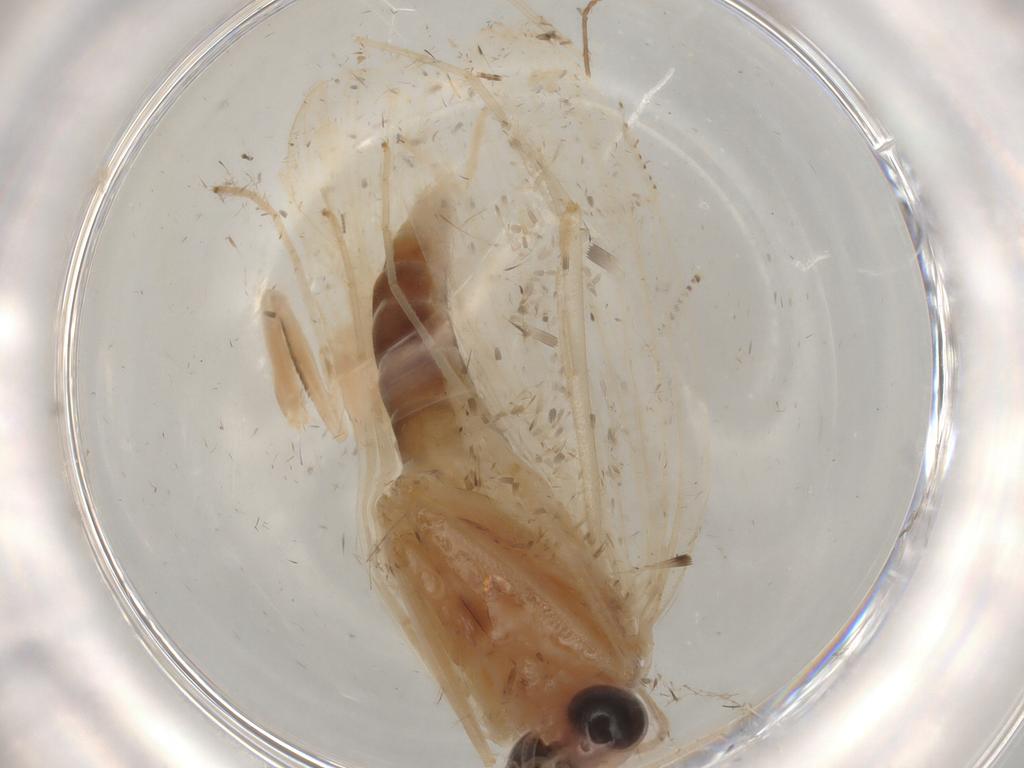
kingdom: Animalia
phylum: Arthropoda
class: Insecta
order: Lepidoptera
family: Crambidae
